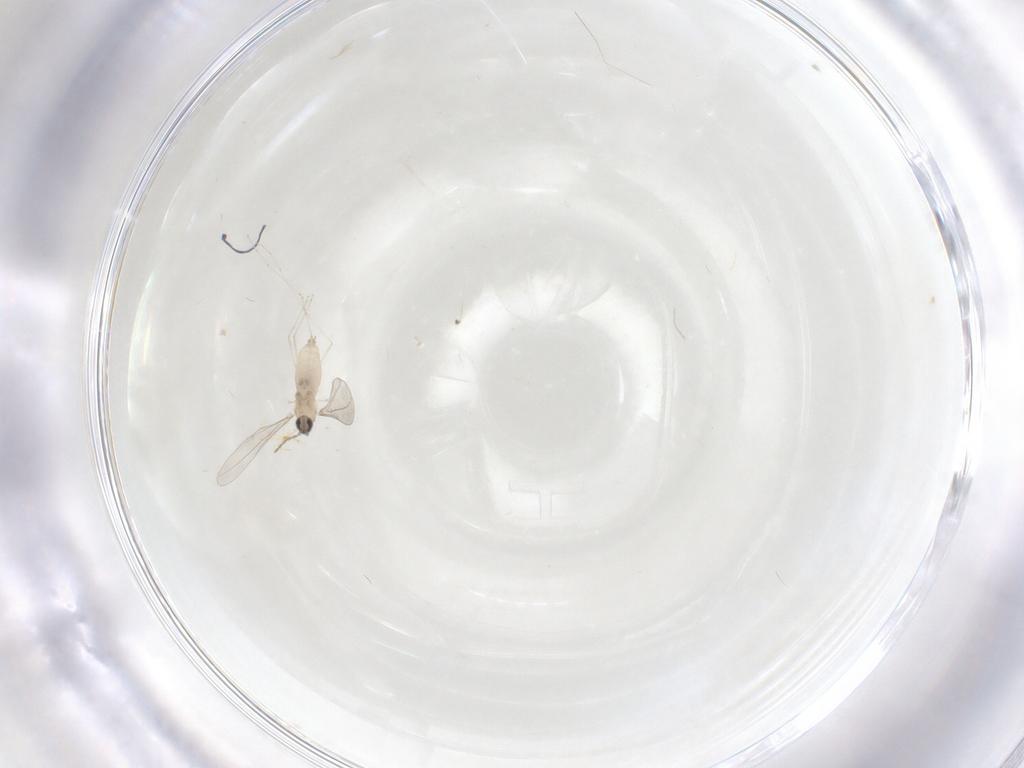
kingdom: Animalia
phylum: Arthropoda
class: Insecta
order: Diptera
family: Cecidomyiidae
